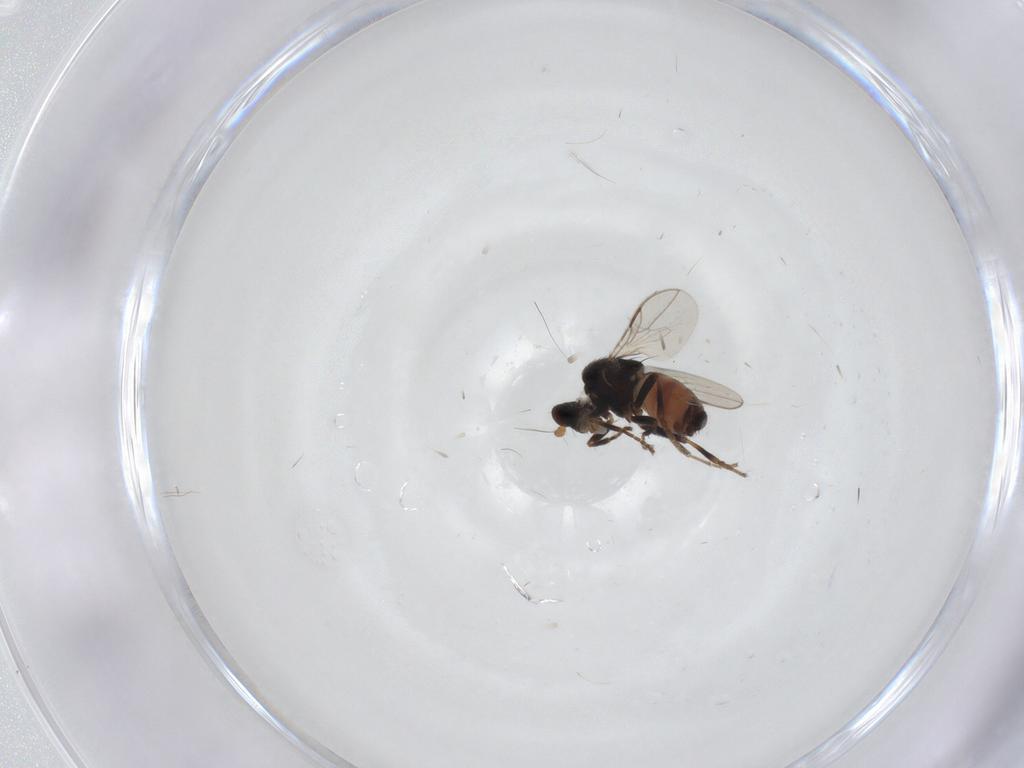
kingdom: Animalia
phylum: Arthropoda
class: Insecta
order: Diptera
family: Sphaeroceridae
